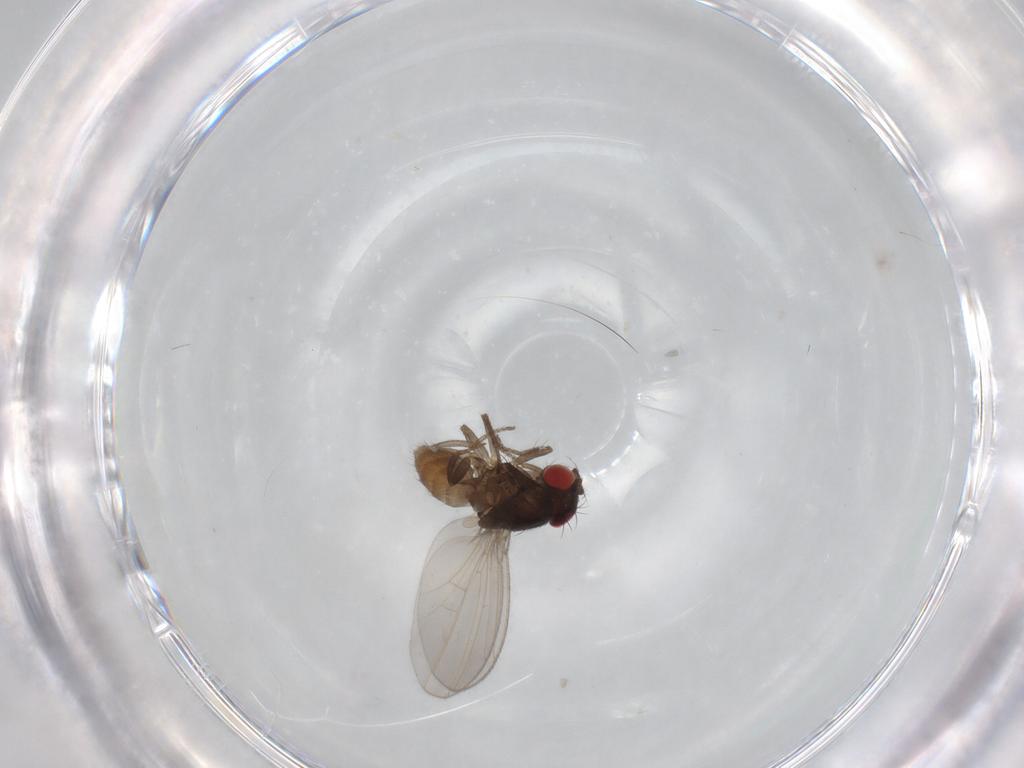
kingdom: Animalia
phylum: Arthropoda
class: Insecta
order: Diptera
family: Drosophilidae
